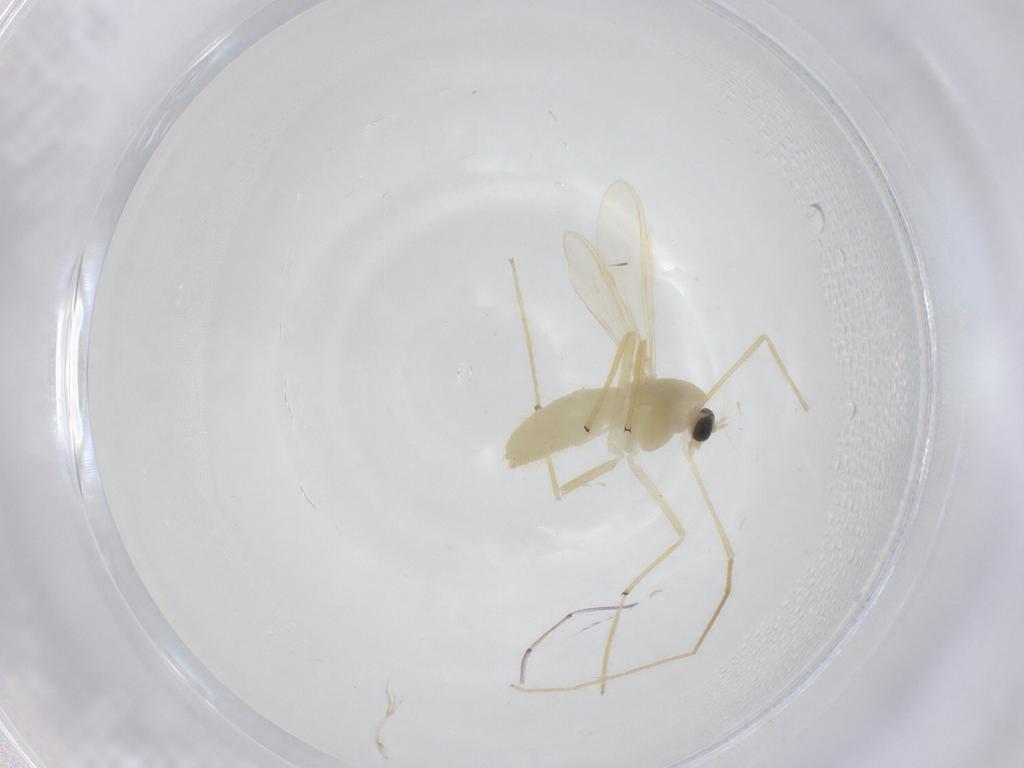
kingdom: Animalia
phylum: Arthropoda
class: Insecta
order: Diptera
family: Chironomidae
